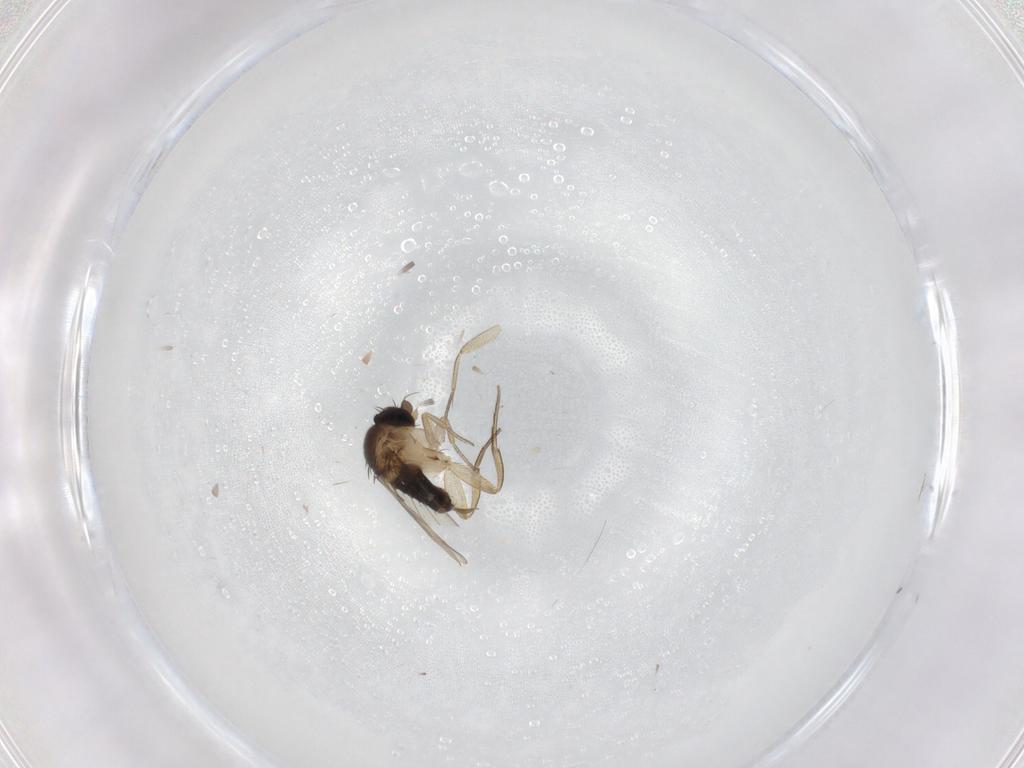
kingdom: Animalia
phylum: Arthropoda
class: Insecta
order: Diptera
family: Phoridae
